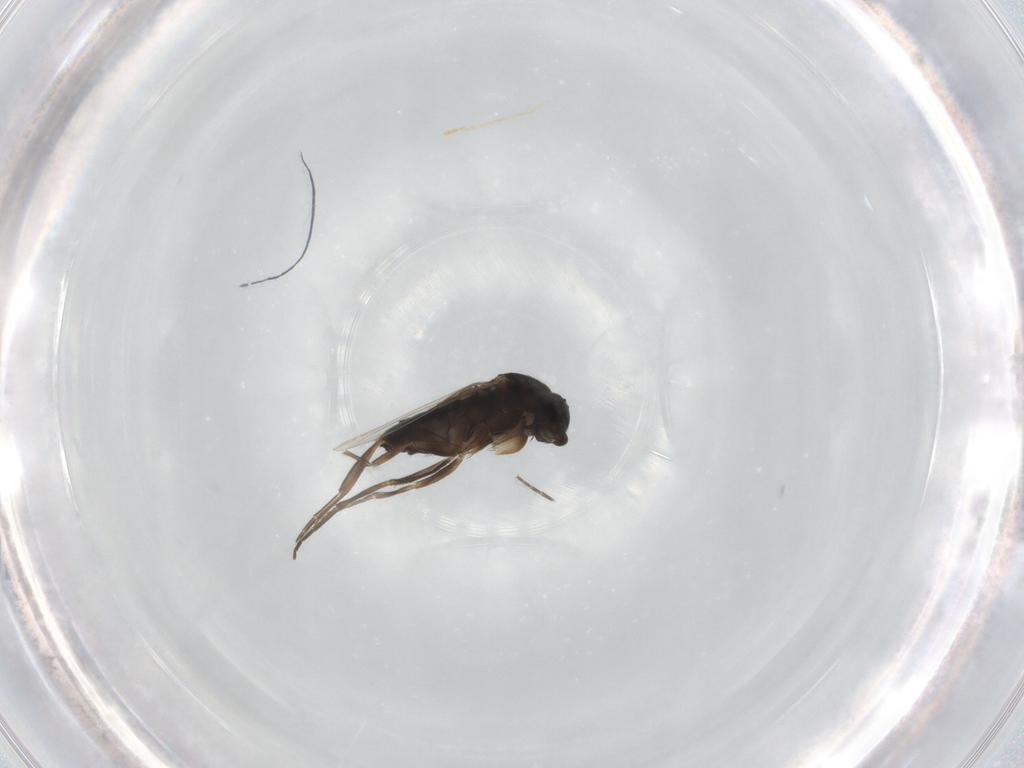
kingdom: Animalia
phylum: Arthropoda
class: Insecta
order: Diptera
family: Phoridae
